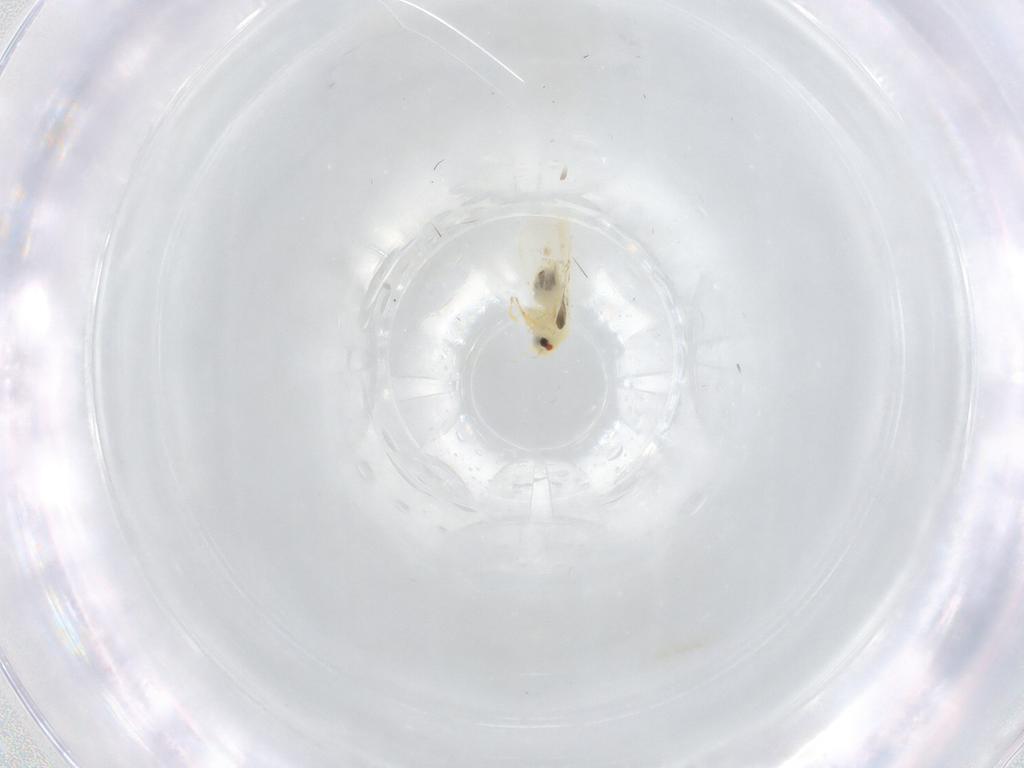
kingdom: Animalia
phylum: Arthropoda
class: Insecta
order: Hemiptera
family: Aleyrodidae
